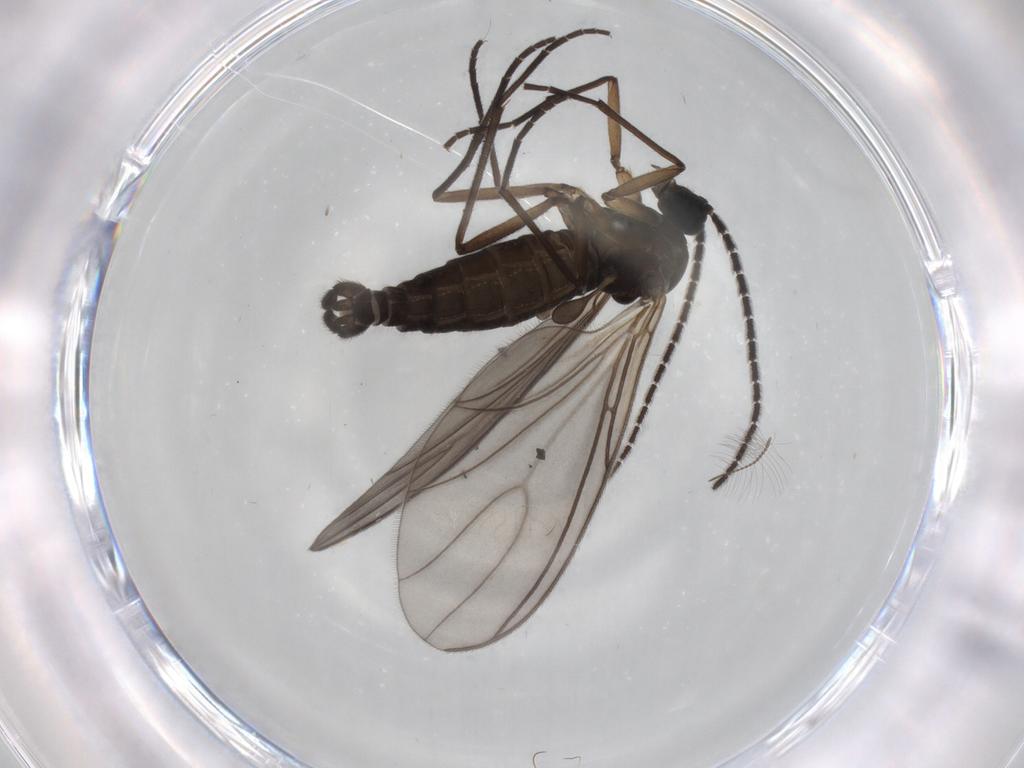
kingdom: Animalia
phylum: Arthropoda
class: Insecta
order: Diptera
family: Sciaridae
